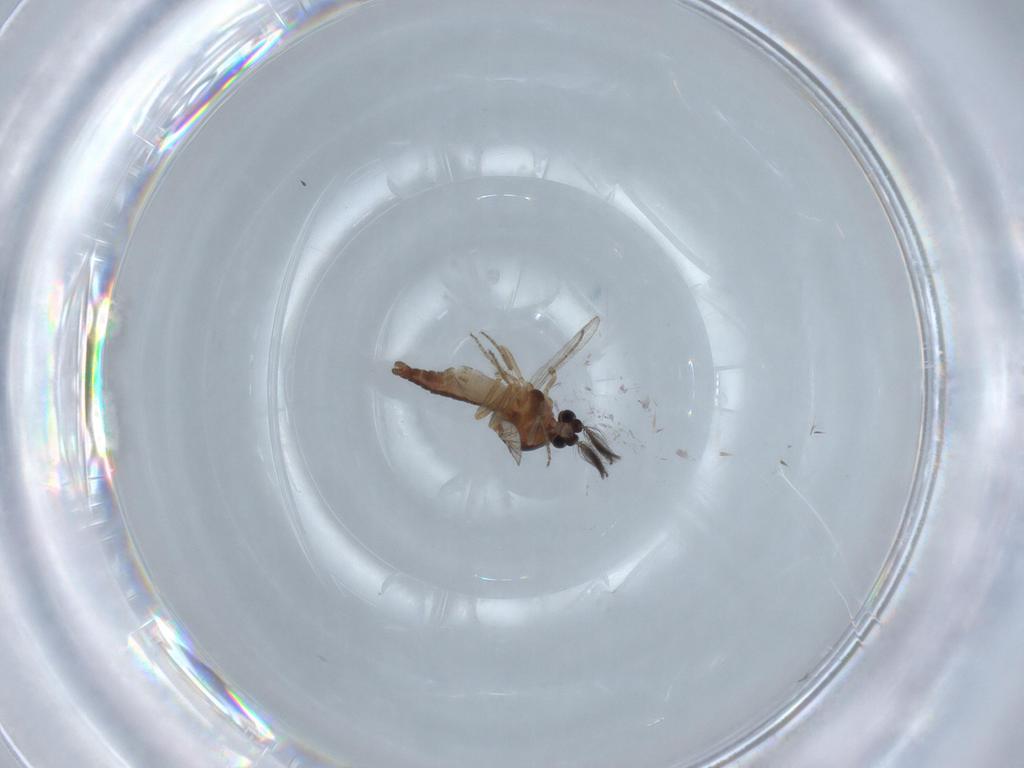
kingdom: Animalia
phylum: Arthropoda
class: Insecta
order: Diptera
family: Ceratopogonidae
